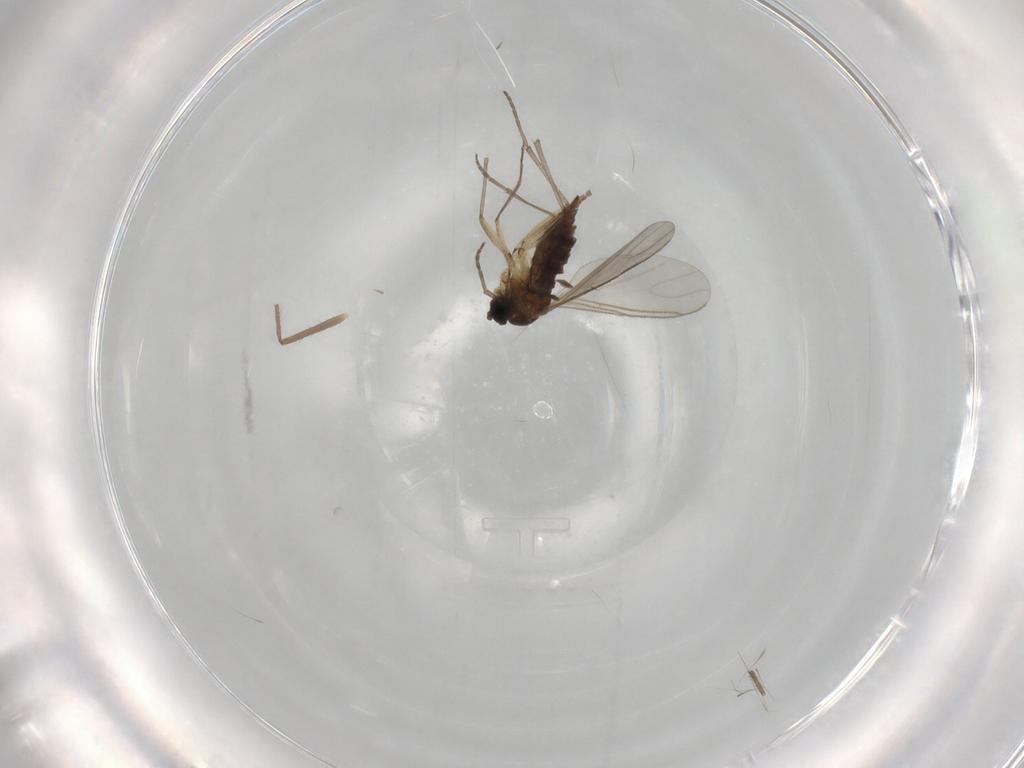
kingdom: Animalia
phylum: Arthropoda
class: Insecta
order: Diptera
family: Sciaridae
